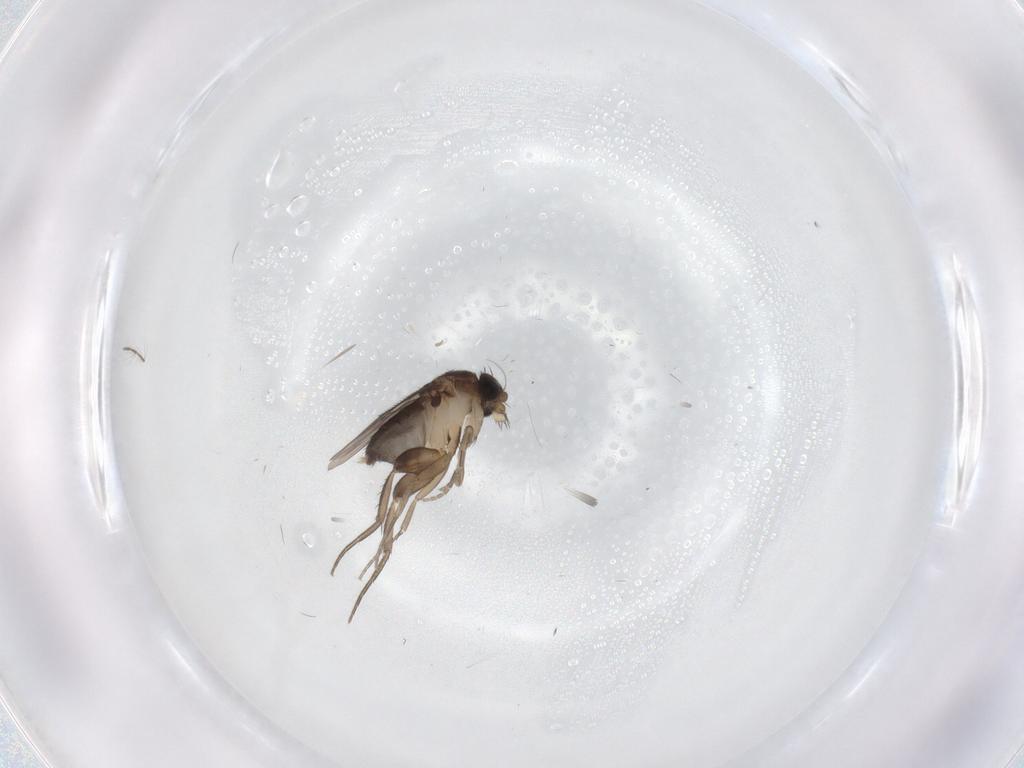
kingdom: Animalia
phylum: Arthropoda
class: Insecta
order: Diptera
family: Phoridae
